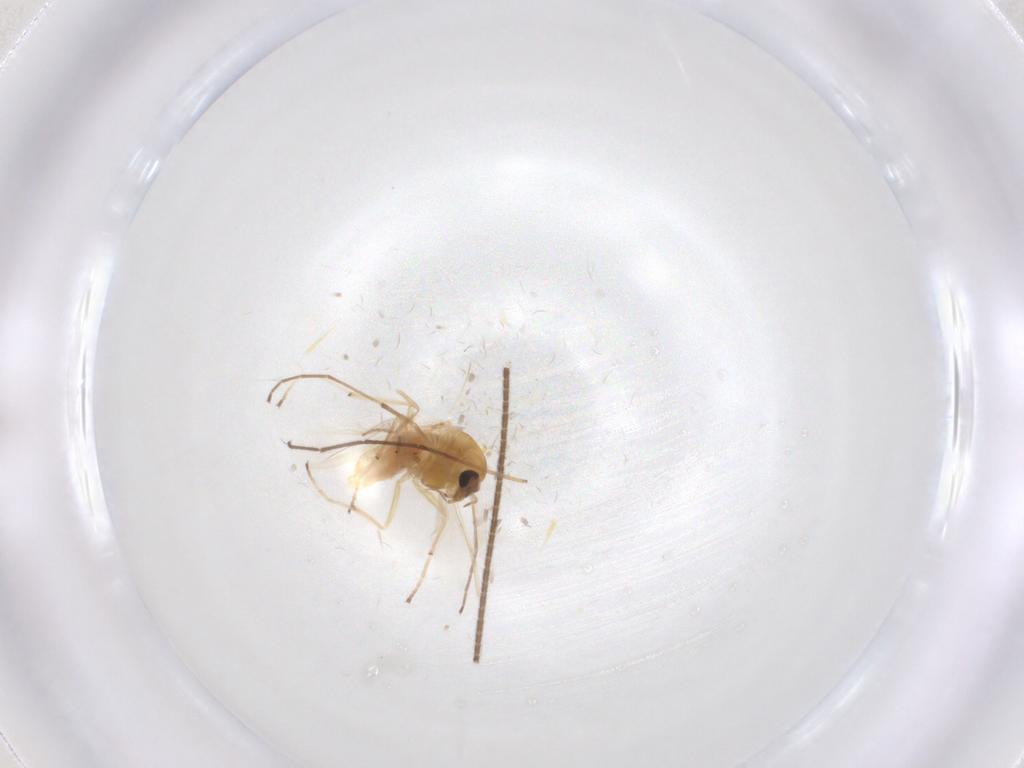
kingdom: Animalia
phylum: Arthropoda
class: Insecta
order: Diptera
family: Chironomidae
